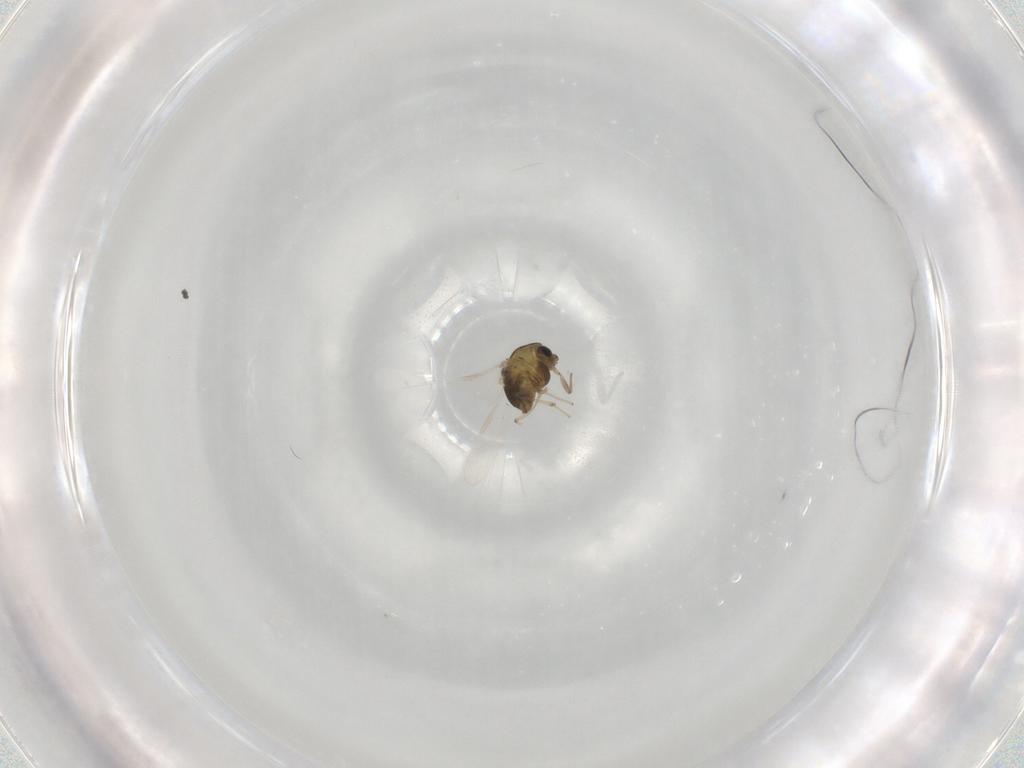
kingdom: Animalia
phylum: Arthropoda
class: Insecta
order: Diptera
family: Chironomidae
